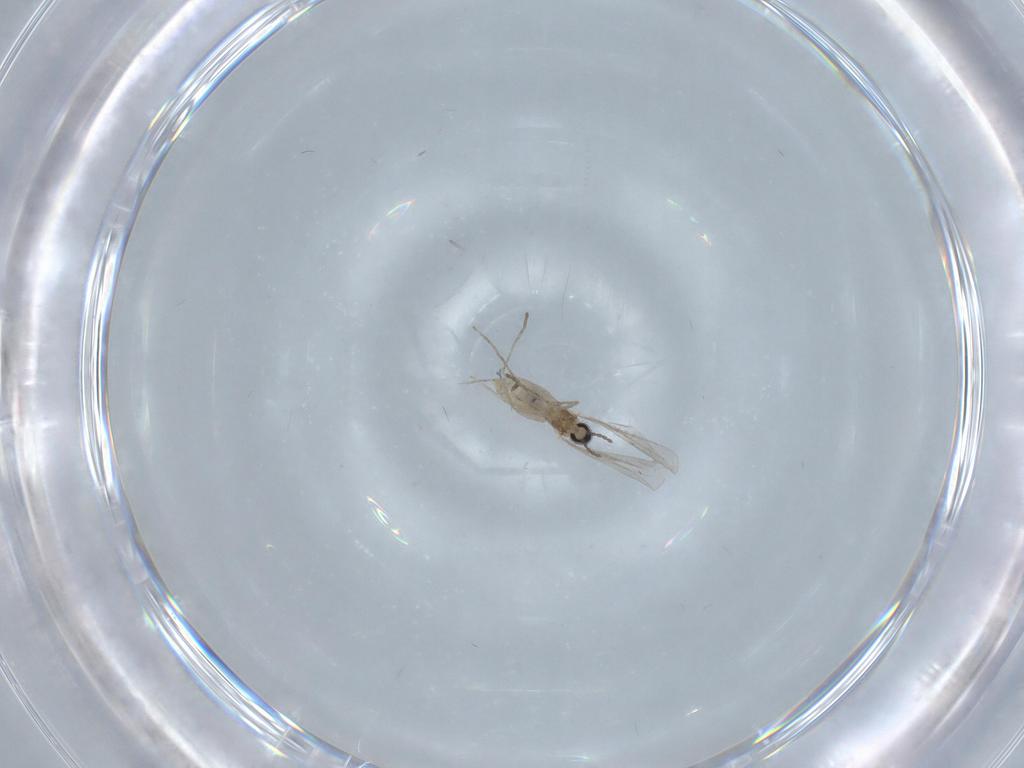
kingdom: Animalia
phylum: Arthropoda
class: Insecta
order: Diptera
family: Cecidomyiidae
